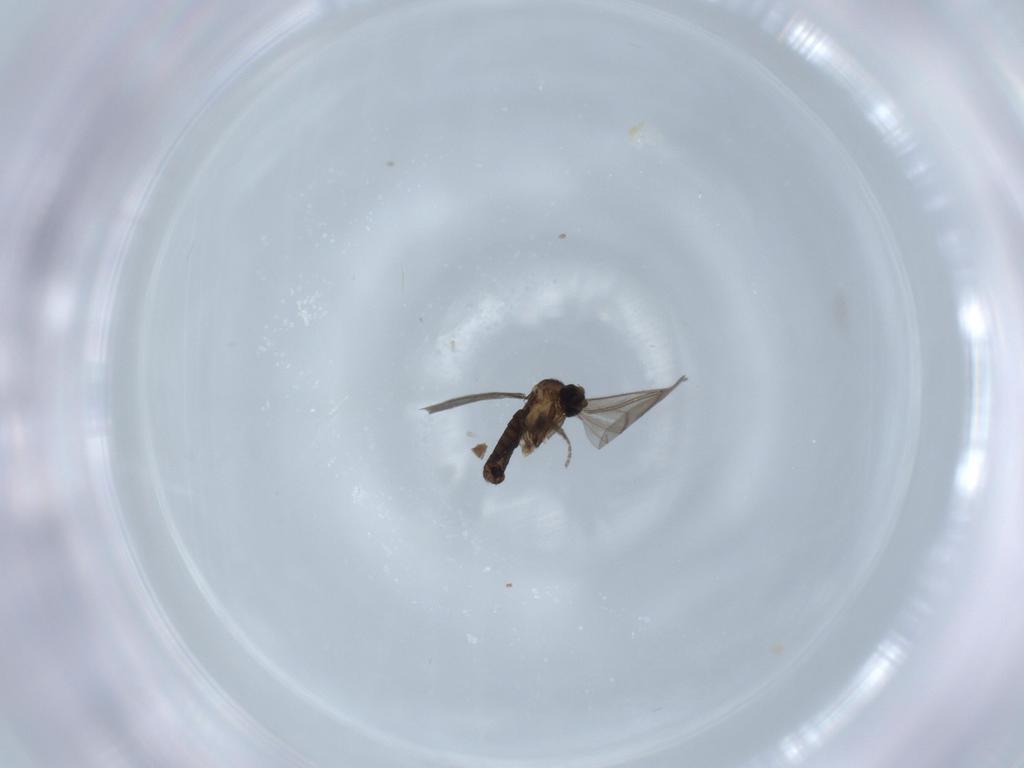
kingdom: Animalia
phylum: Arthropoda
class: Insecta
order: Diptera
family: Phoridae
